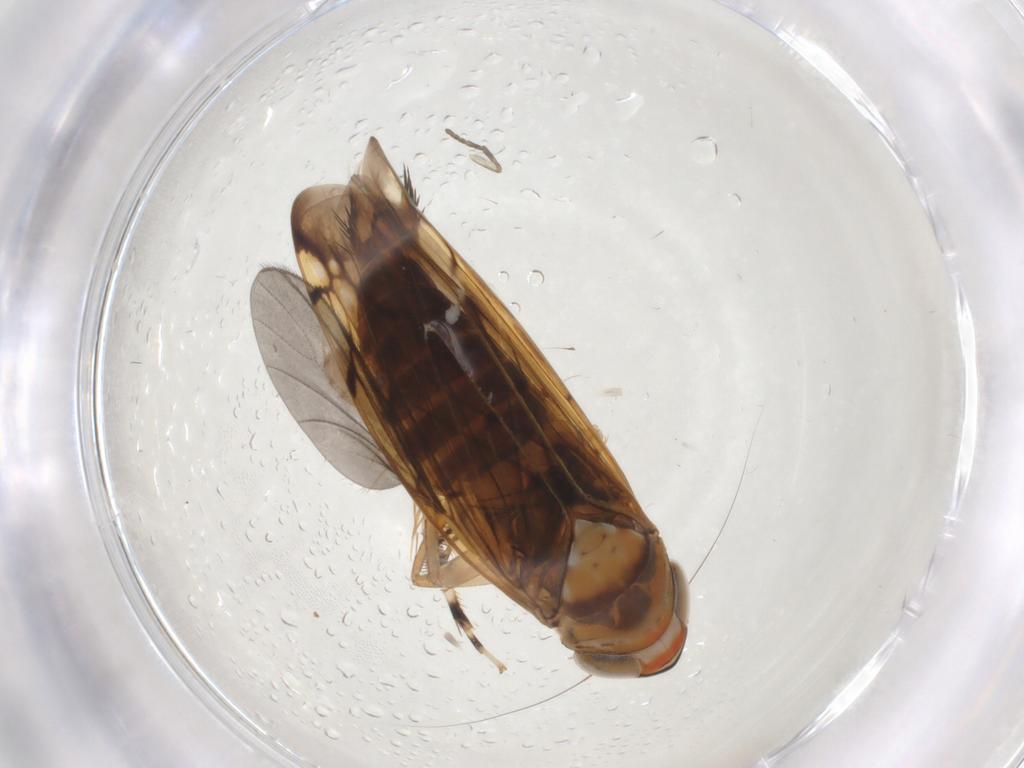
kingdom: Animalia
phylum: Arthropoda
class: Insecta
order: Hemiptera
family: Cicadellidae
